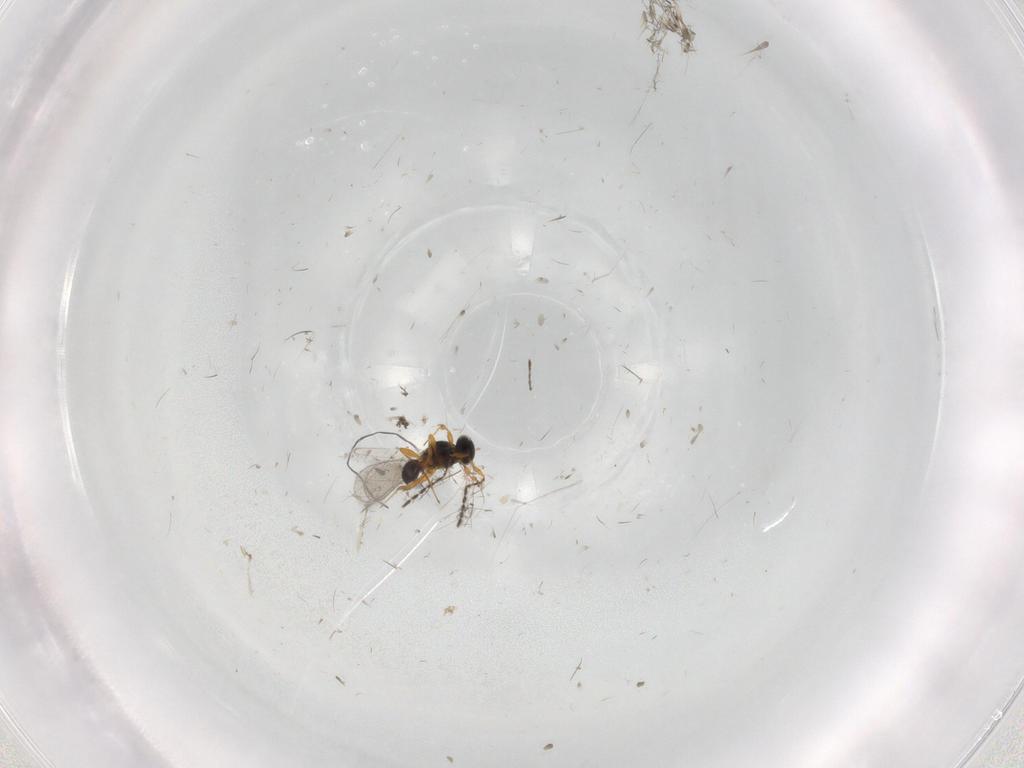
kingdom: Animalia
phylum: Arthropoda
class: Insecta
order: Hymenoptera
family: Platygastridae
